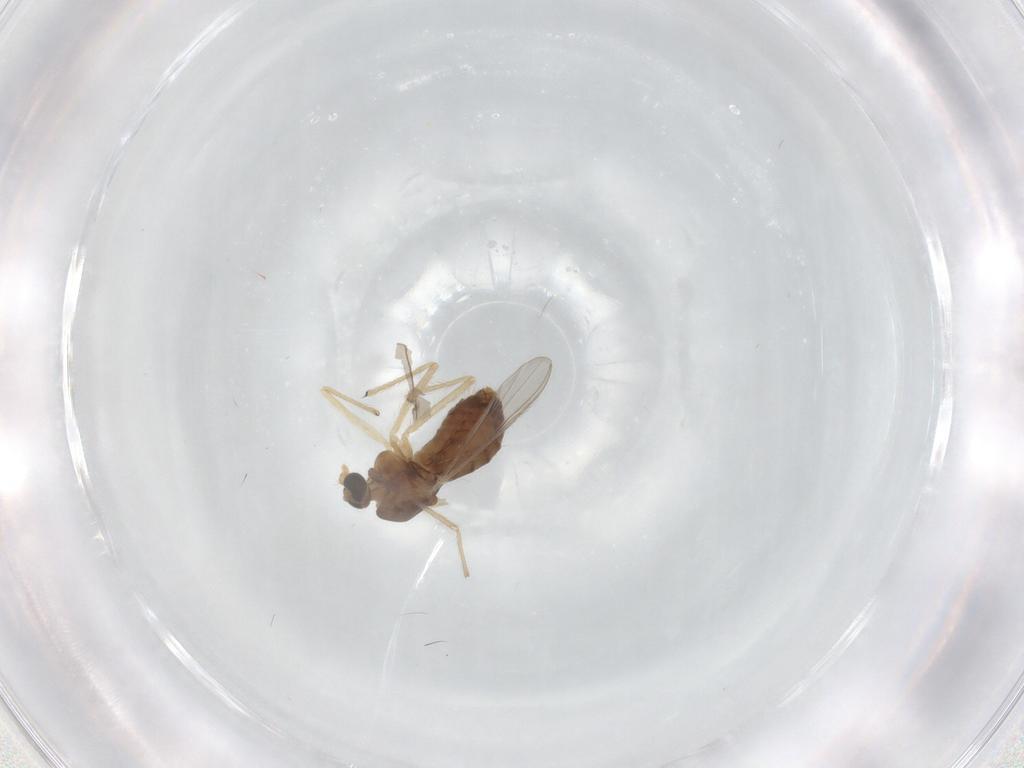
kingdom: Animalia
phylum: Arthropoda
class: Insecta
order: Diptera
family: Chironomidae
